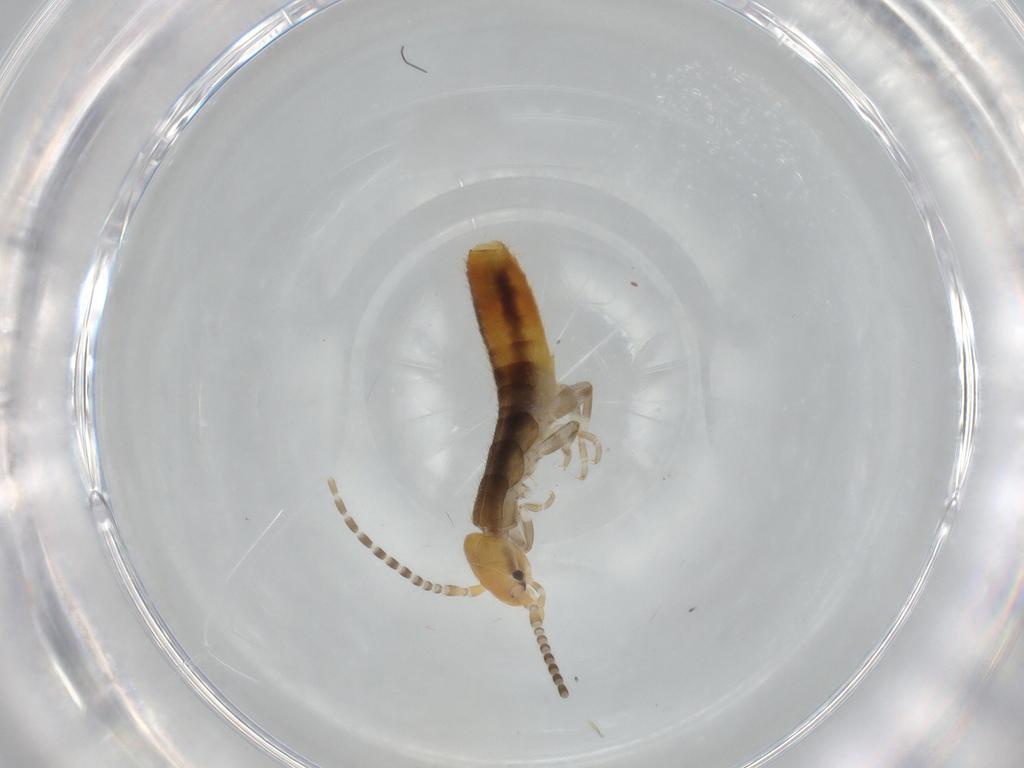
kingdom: Animalia
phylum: Arthropoda
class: Insecta
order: Dermaptera
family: Forficulidae
